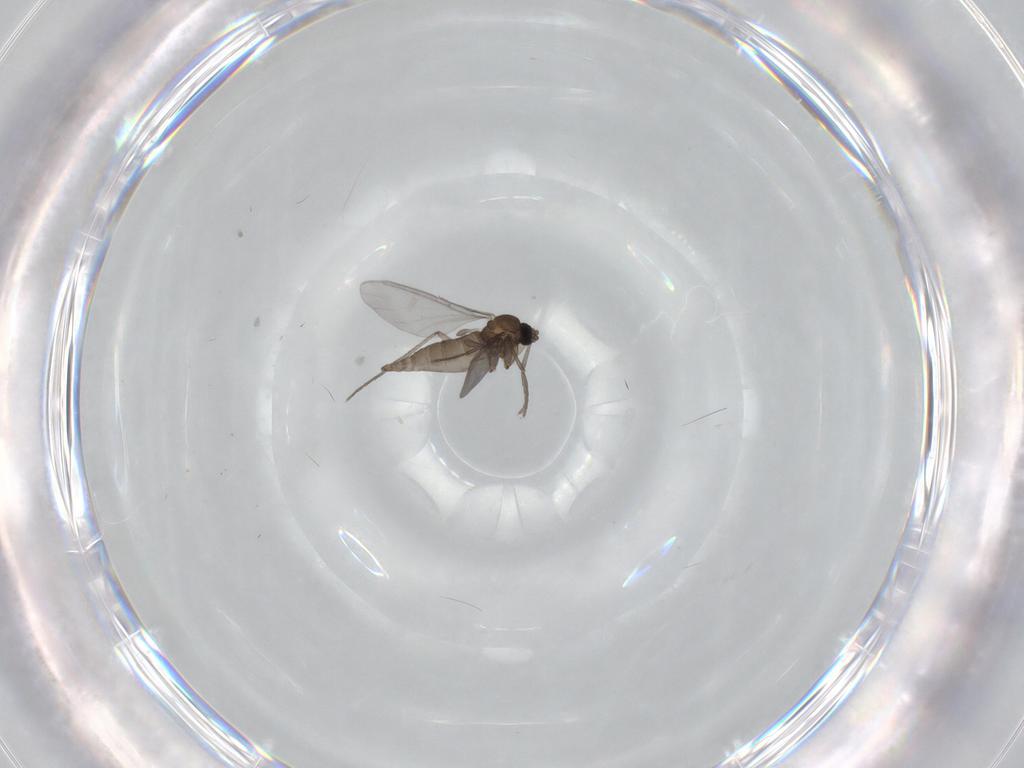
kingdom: Animalia
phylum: Arthropoda
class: Insecta
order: Diptera
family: Sciaridae
